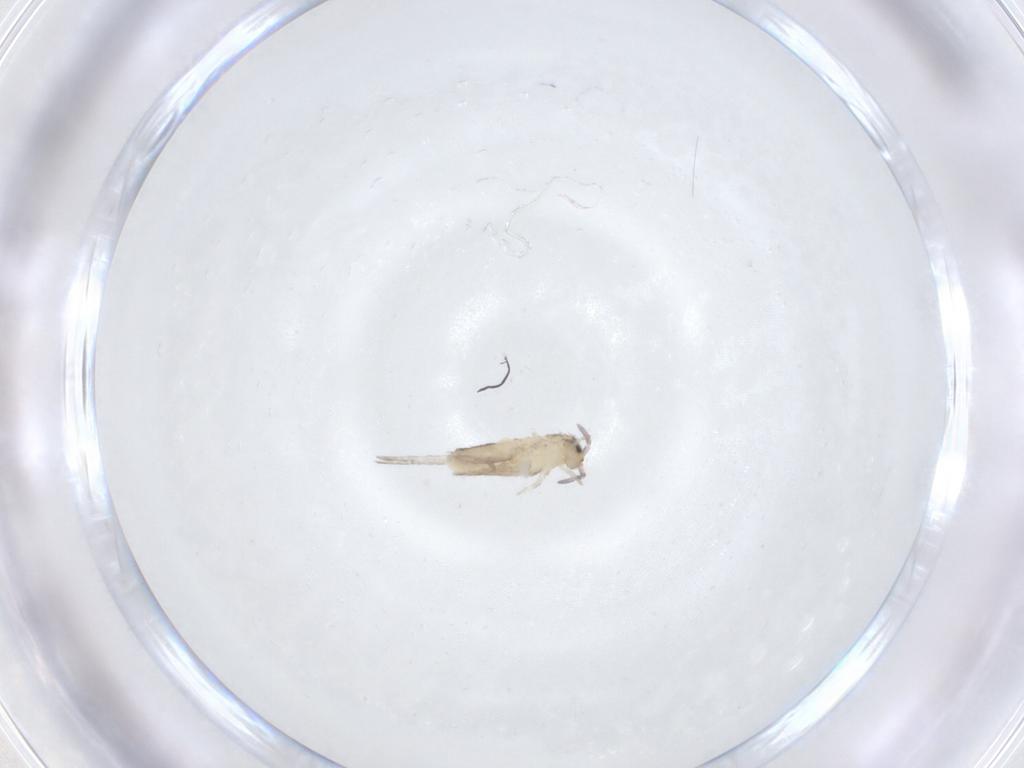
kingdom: Animalia
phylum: Arthropoda
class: Collembola
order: Entomobryomorpha
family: Entomobryidae
